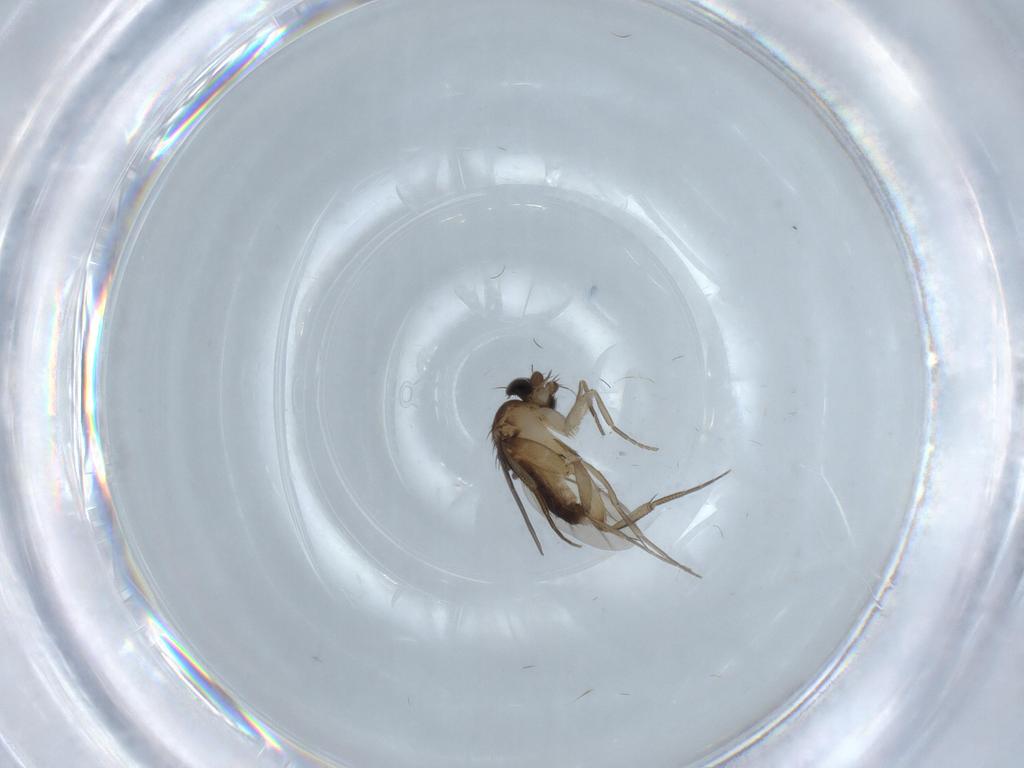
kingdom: Animalia
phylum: Arthropoda
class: Insecta
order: Diptera
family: Phoridae
